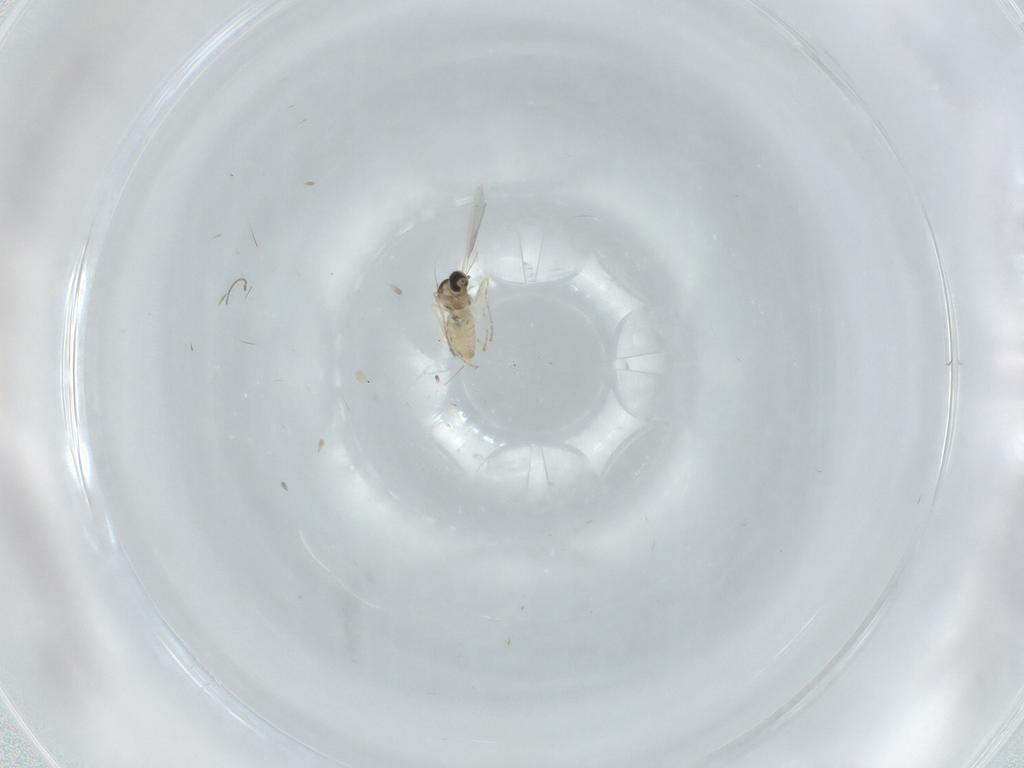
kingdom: Animalia
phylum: Arthropoda
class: Insecta
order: Diptera
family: Cecidomyiidae
